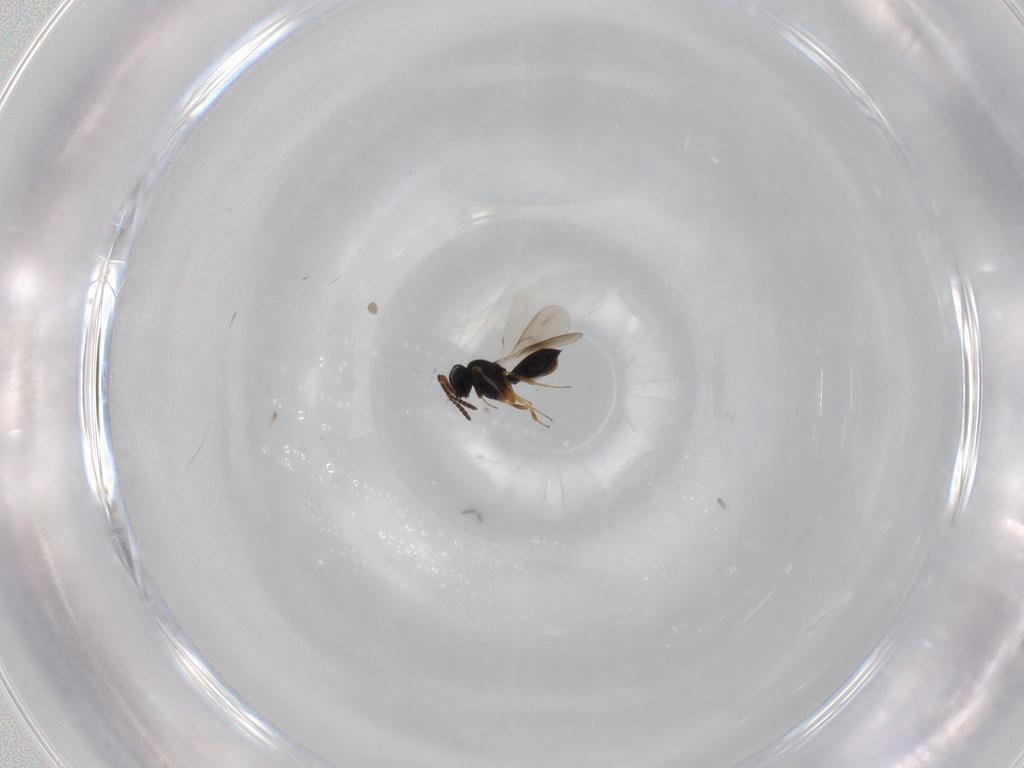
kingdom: Animalia
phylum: Arthropoda
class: Insecta
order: Hymenoptera
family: Scelionidae
